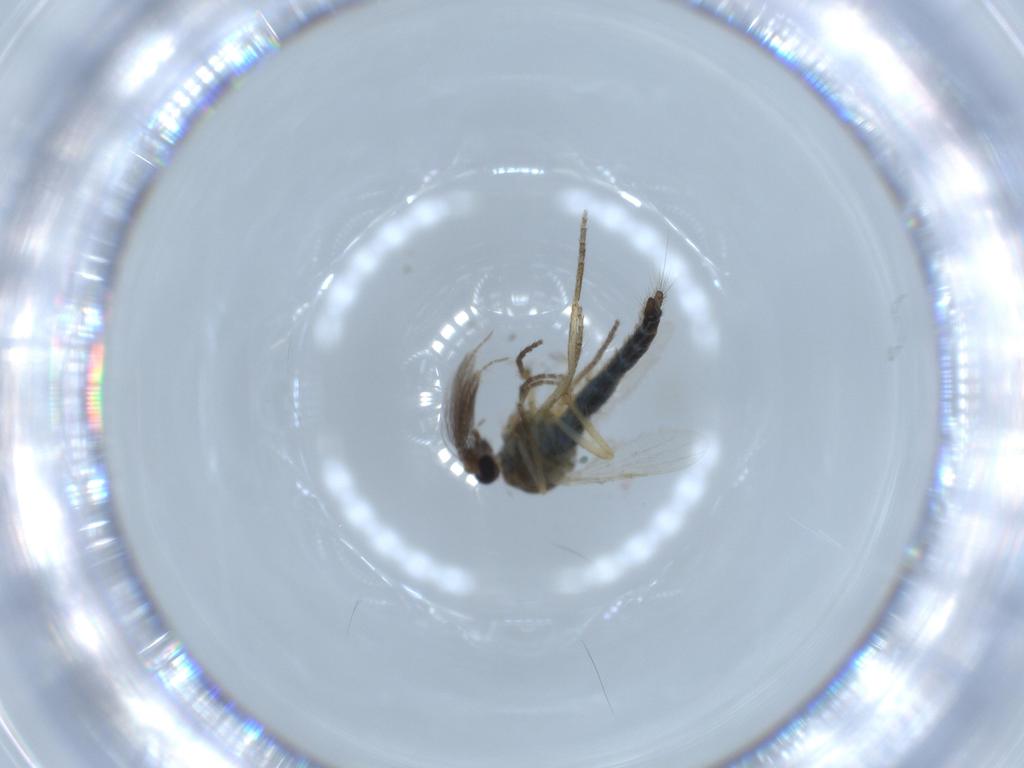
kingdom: Animalia
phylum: Arthropoda
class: Insecta
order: Diptera
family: Ceratopogonidae
